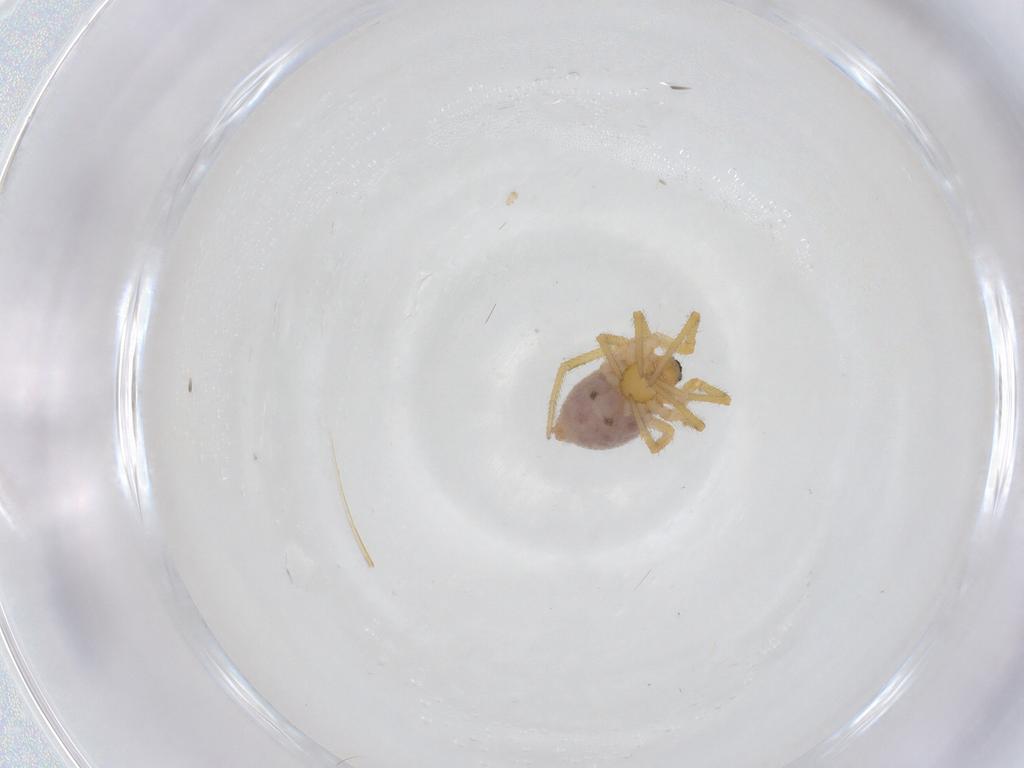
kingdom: Animalia
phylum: Arthropoda
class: Arachnida
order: Araneae
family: Theridiidae
